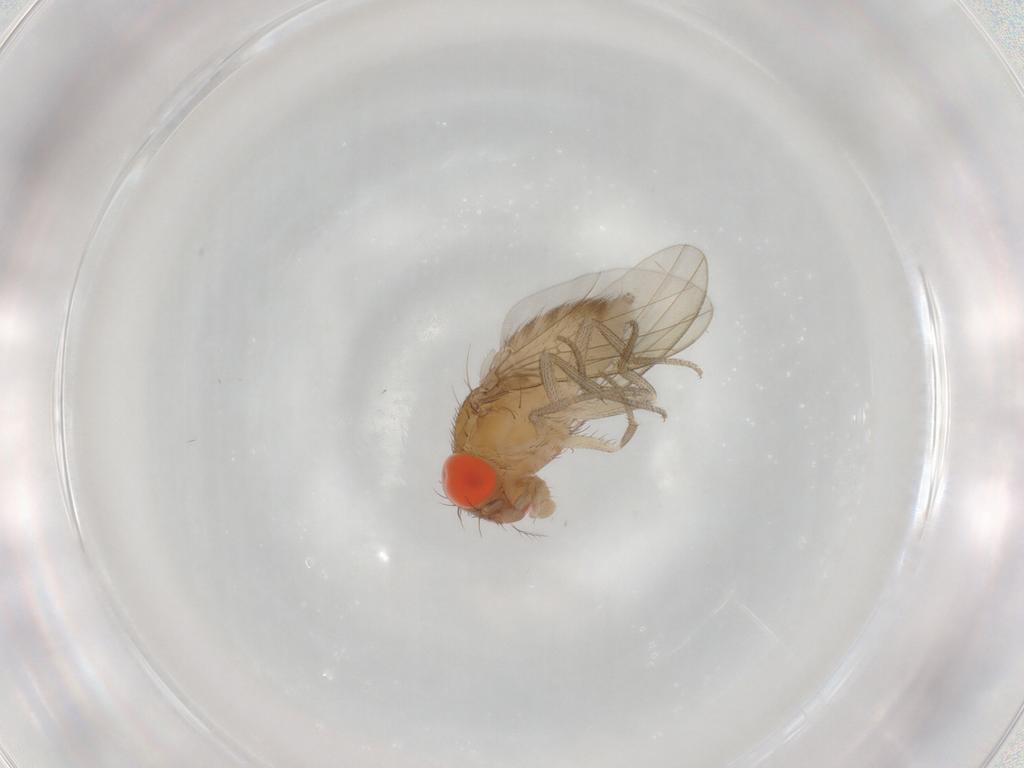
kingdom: Animalia
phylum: Arthropoda
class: Insecta
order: Diptera
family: Drosophilidae
